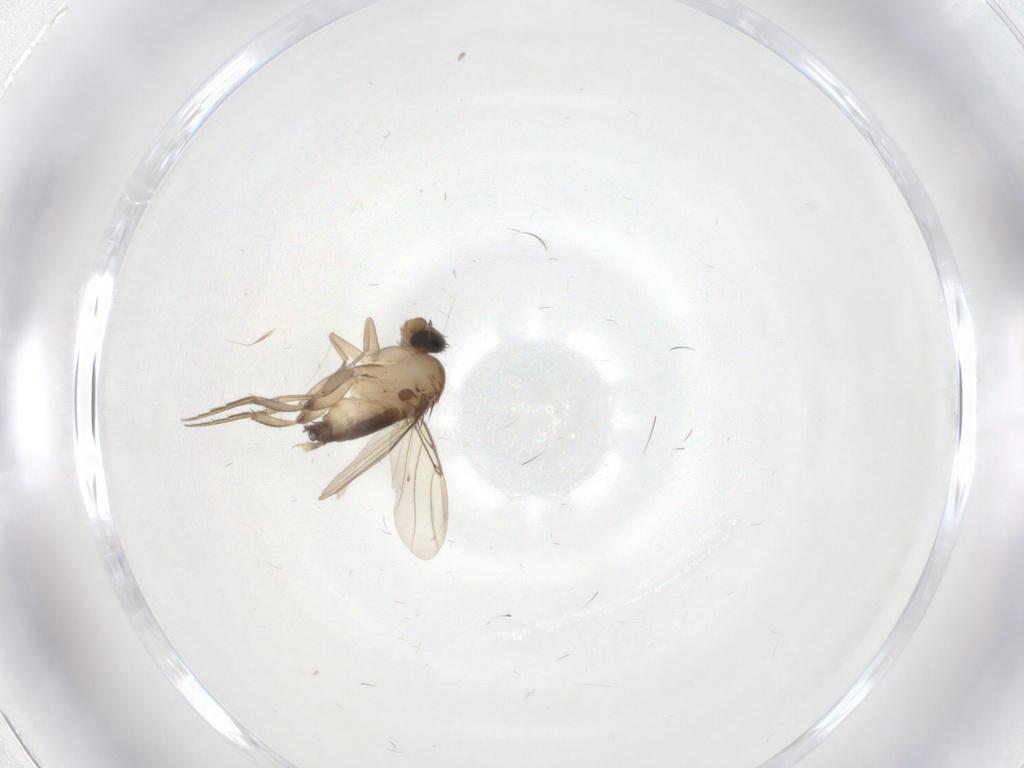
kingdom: Animalia
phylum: Arthropoda
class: Insecta
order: Diptera
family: Phoridae
